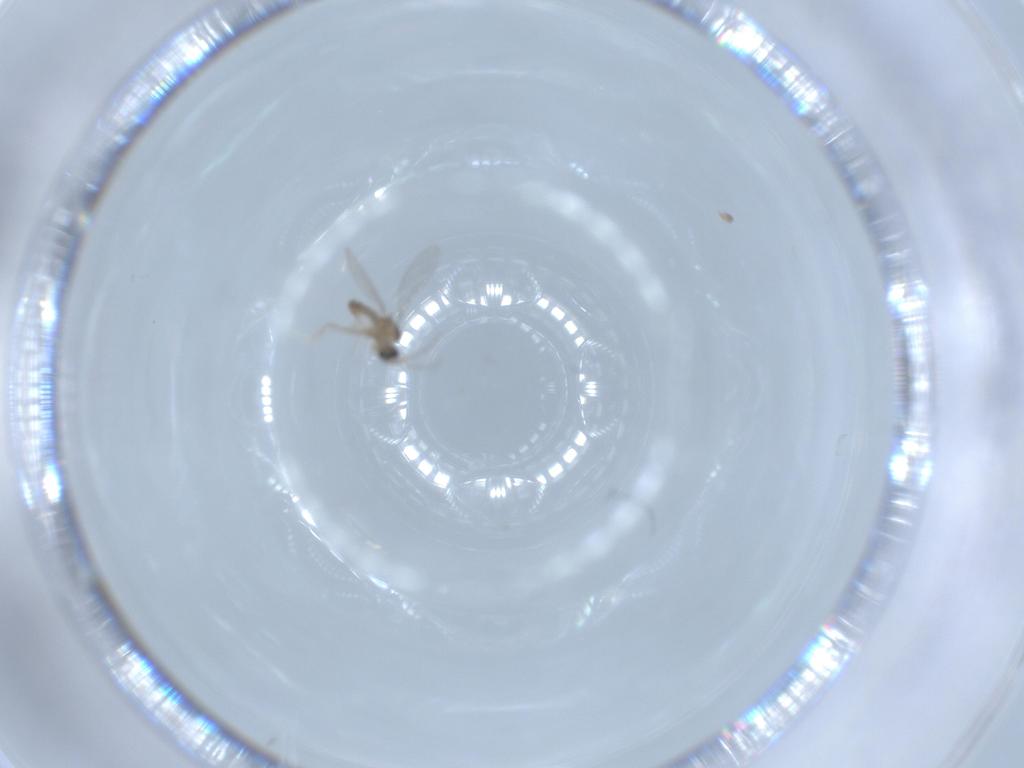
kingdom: Animalia
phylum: Arthropoda
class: Insecta
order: Diptera
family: Cecidomyiidae
